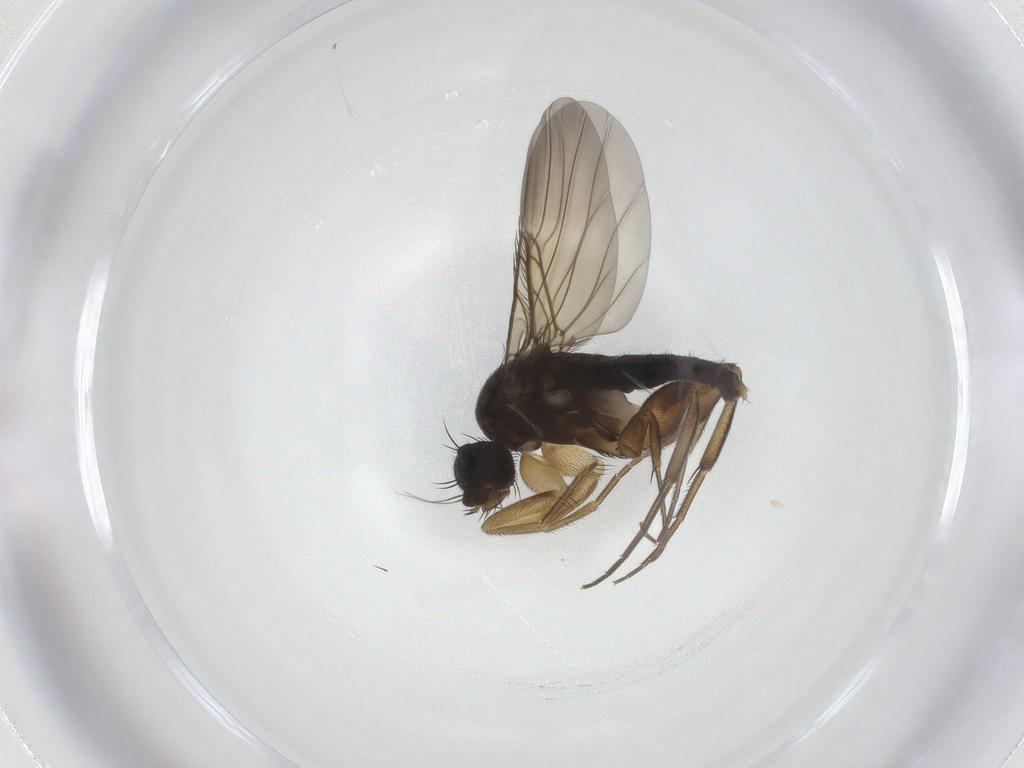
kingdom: Animalia
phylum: Arthropoda
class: Insecta
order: Diptera
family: Phoridae
